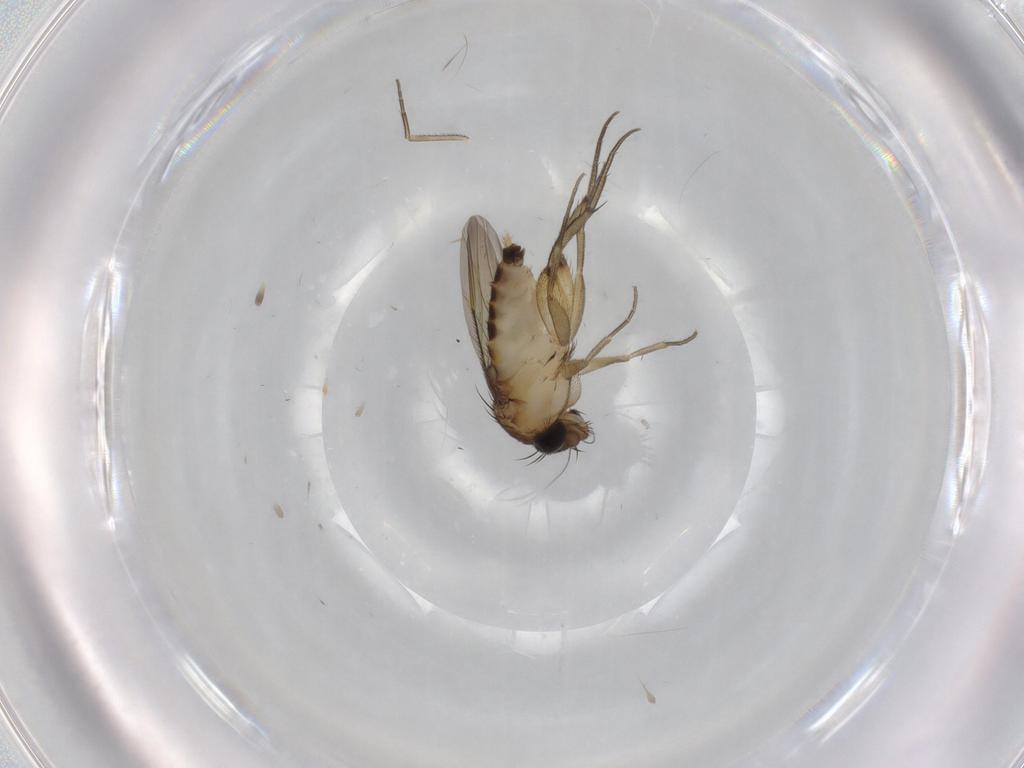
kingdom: Animalia
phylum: Arthropoda
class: Insecta
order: Diptera
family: Phoridae
